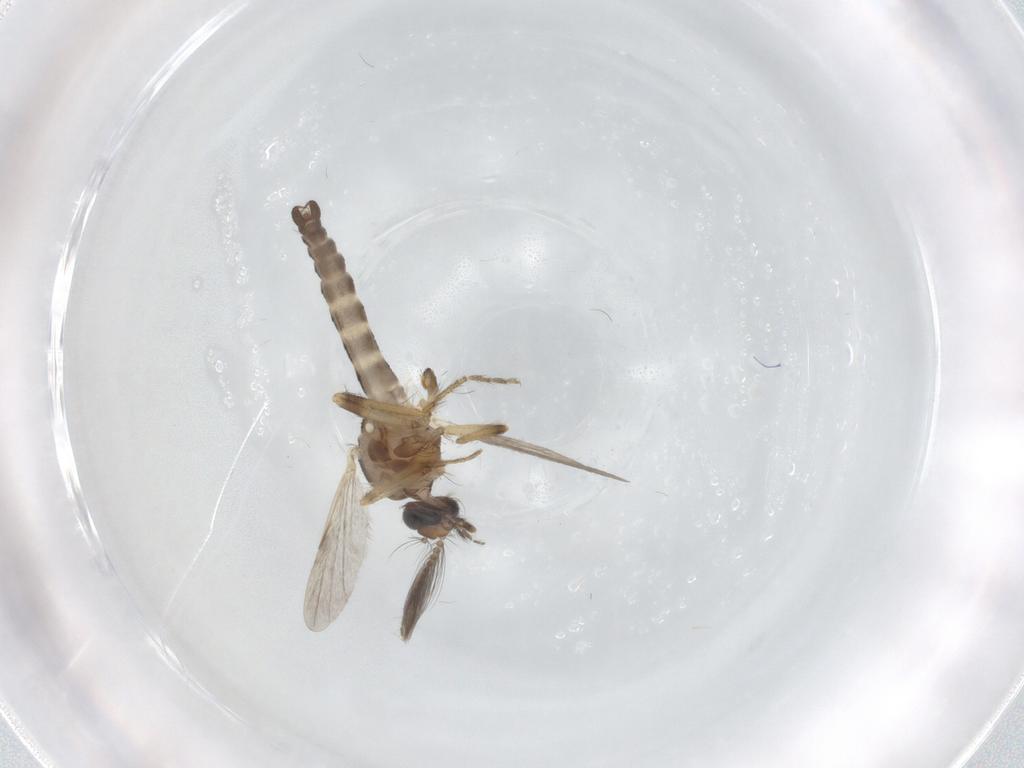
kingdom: Animalia
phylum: Arthropoda
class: Insecta
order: Diptera
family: Ceratopogonidae
